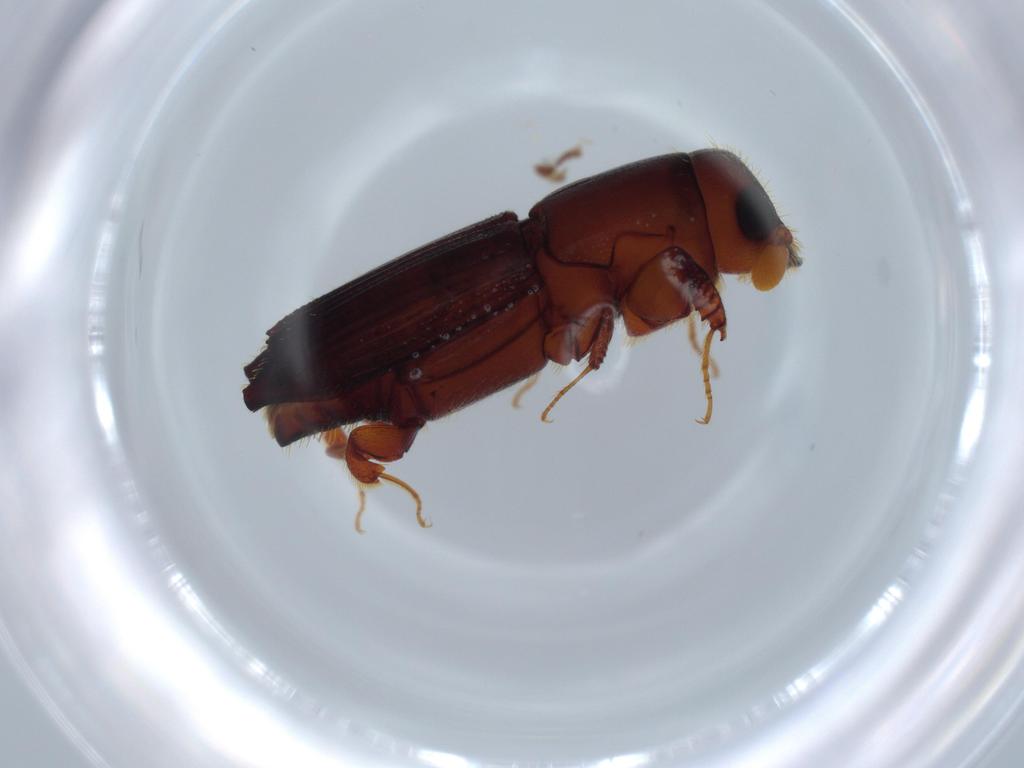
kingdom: Animalia
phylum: Arthropoda
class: Insecta
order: Coleoptera
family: Curculionidae
